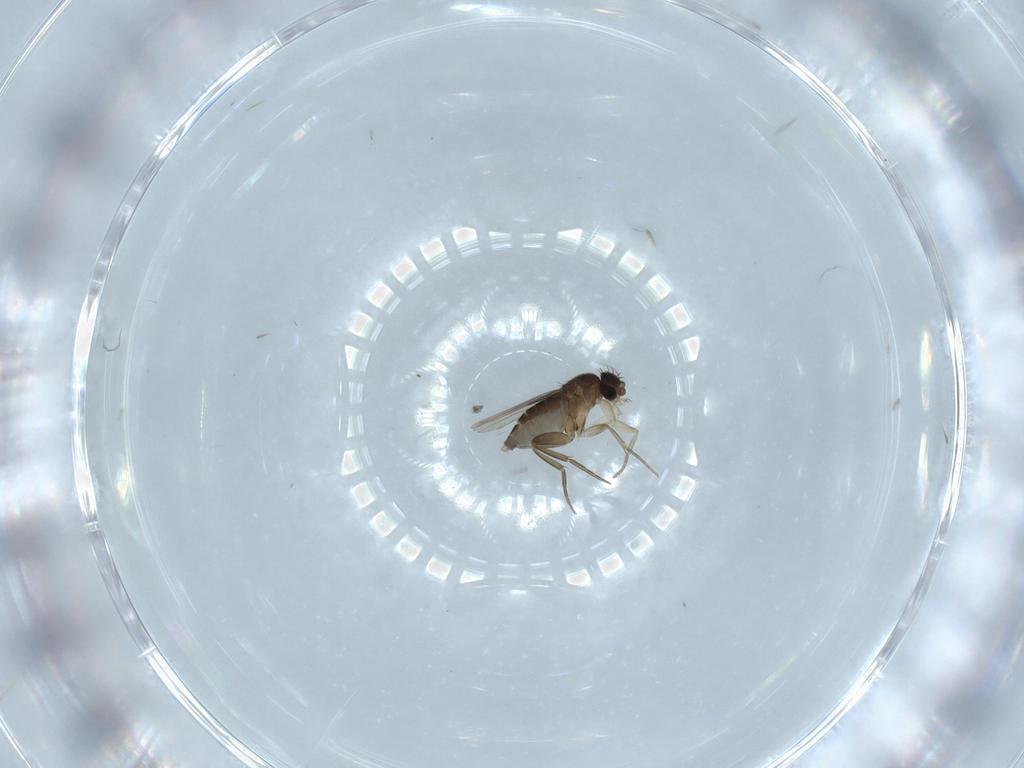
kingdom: Animalia
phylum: Arthropoda
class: Insecta
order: Diptera
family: Phoridae
